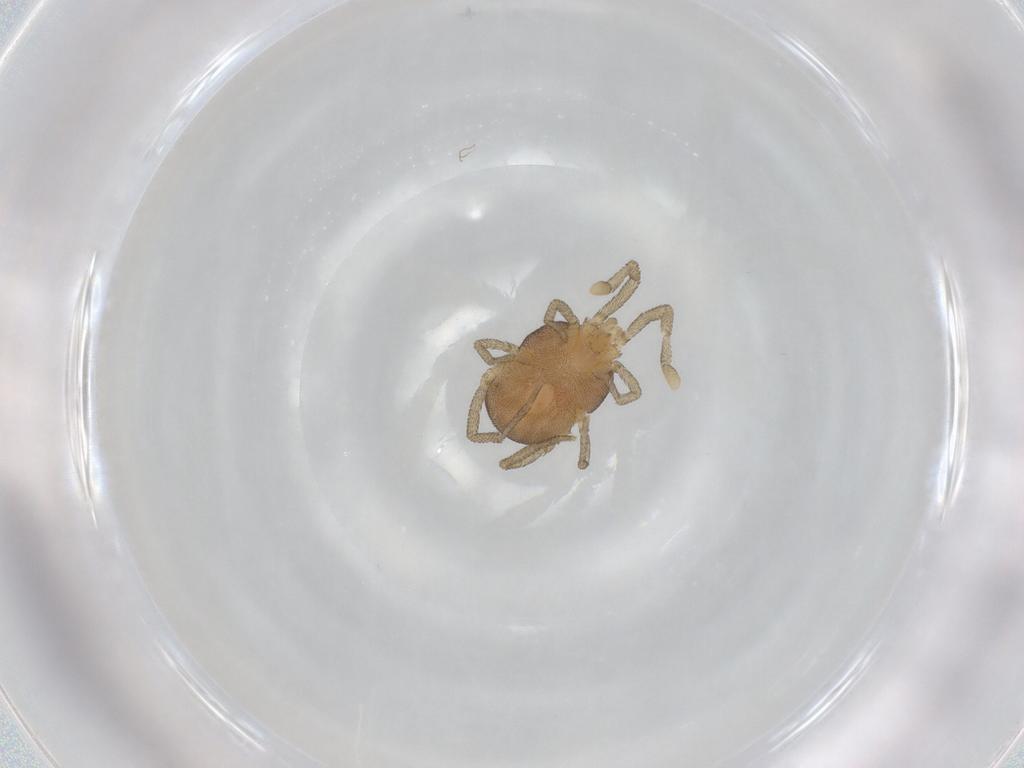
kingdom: Animalia
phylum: Arthropoda
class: Arachnida
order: Trombidiformes
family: Erythraeidae
